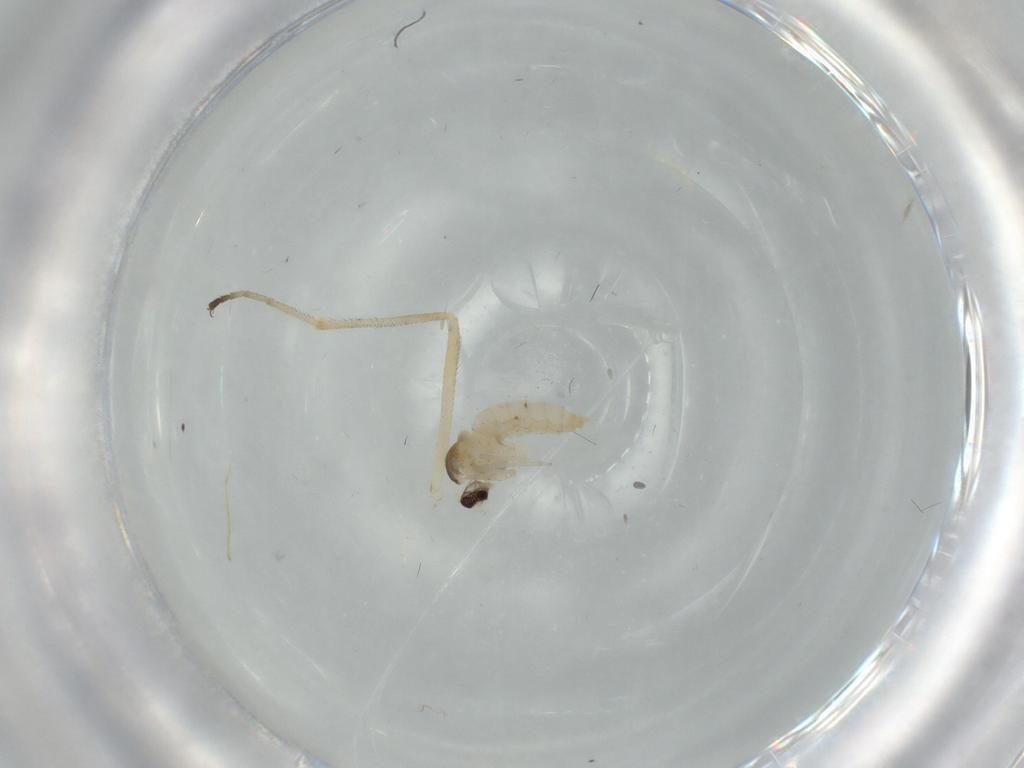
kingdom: Animalia
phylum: Arthropoda
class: Insecta
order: Diptera
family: Cecidomyiidae
